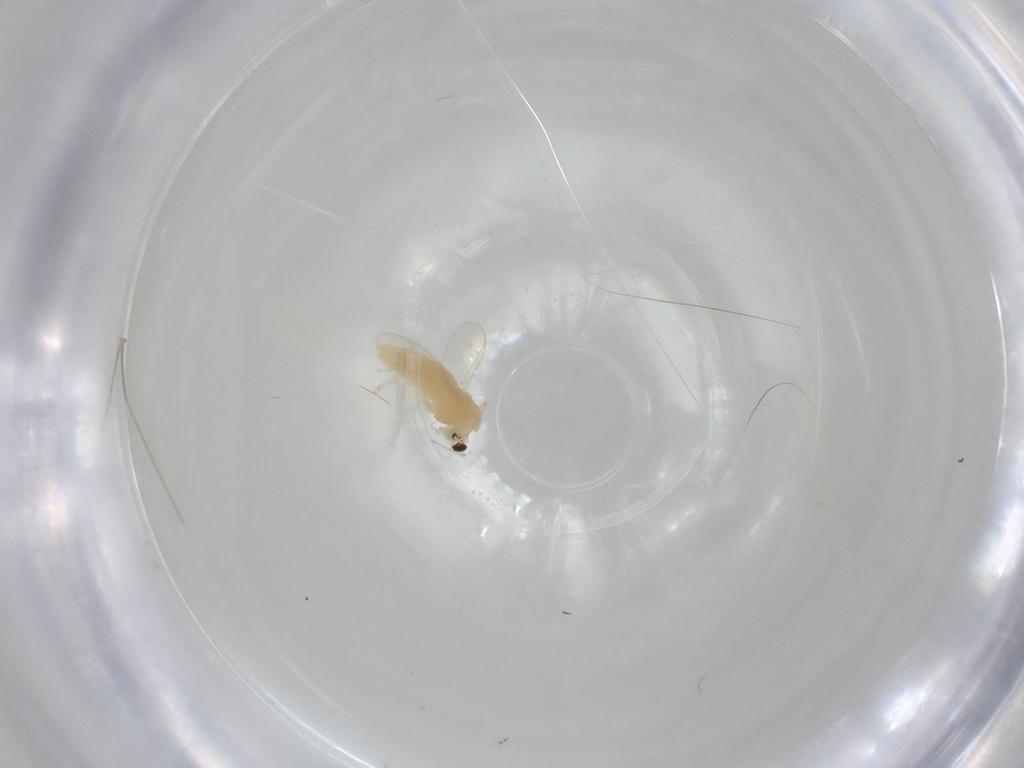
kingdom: Animalia
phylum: Arthropoda
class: Insecta
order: Diptera
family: Chironomidae
